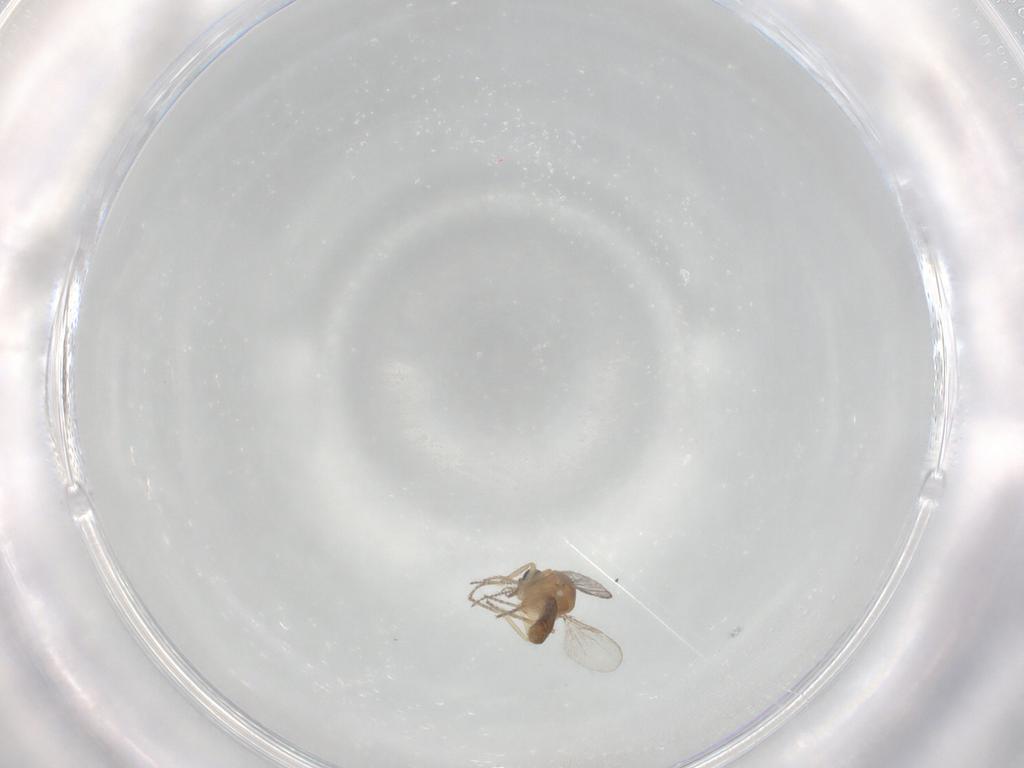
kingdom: Animalia
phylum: Arthropoda
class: Insecta
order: Diptera
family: Ceratopogonidae
